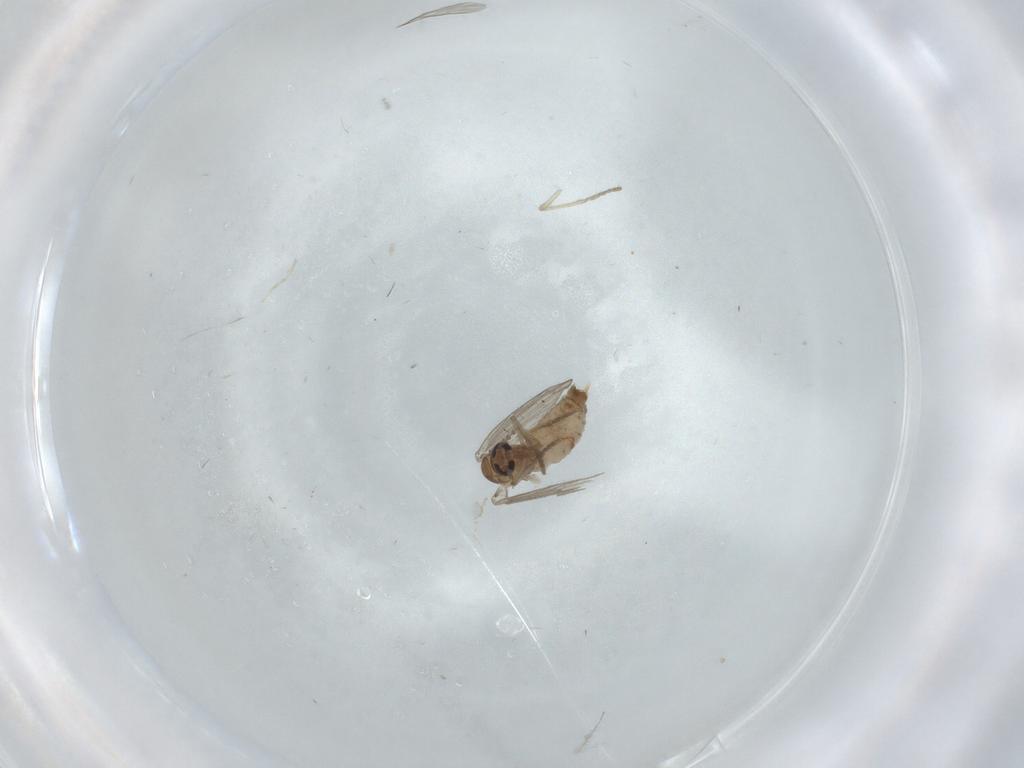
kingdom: Animalia
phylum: Arthropoda
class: Insecta
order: Diptera
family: Psychodidae
